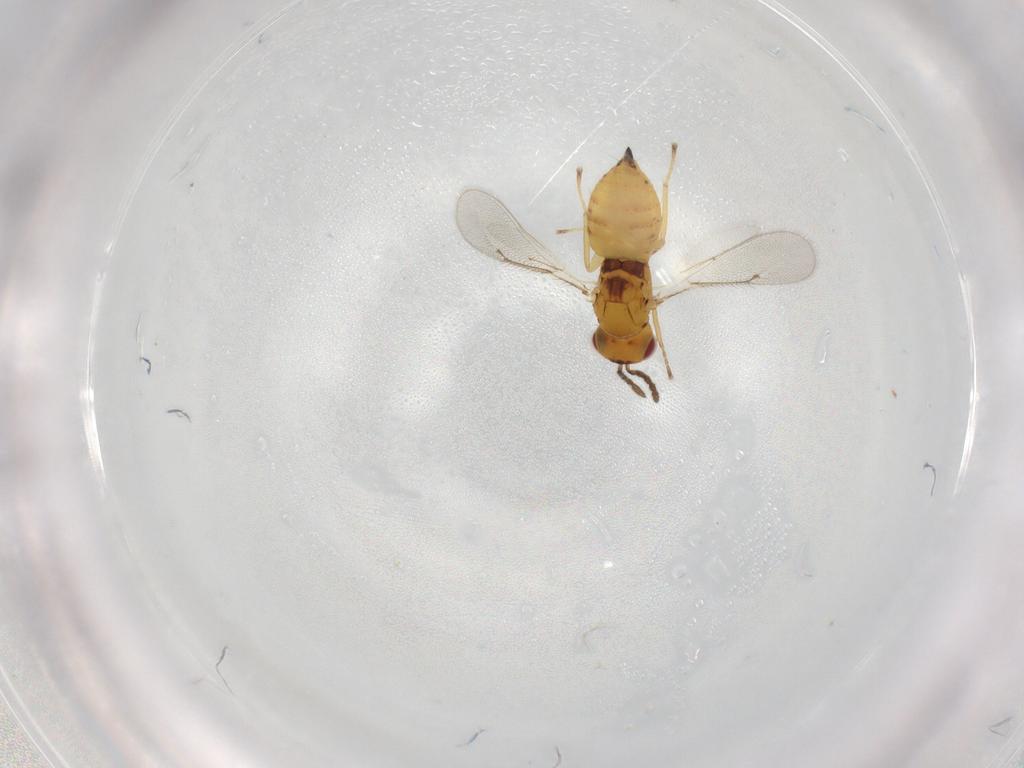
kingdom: Animalia
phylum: Arthropoda
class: Insecta
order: Hymenoptera
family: Eulophidae
